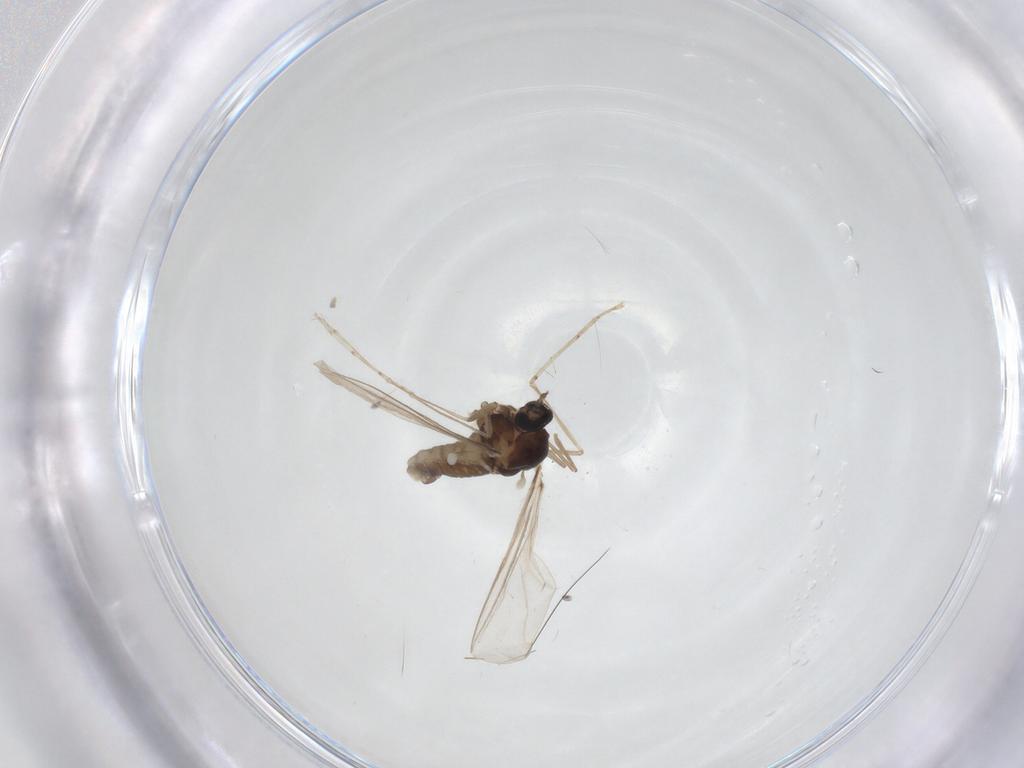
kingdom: Animalia
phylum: Arthropoda
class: Insecta
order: Diptera
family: Cecidomyiidae
